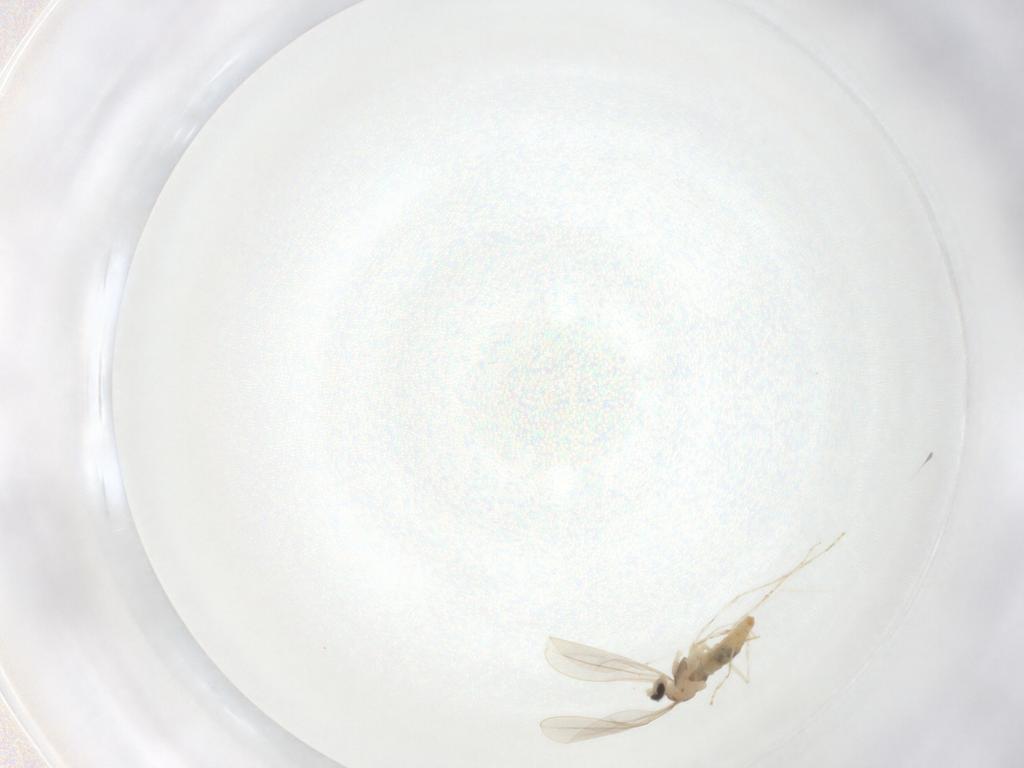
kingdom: Animalia
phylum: Arthropoda
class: Insecta
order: Diptera
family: Cecidomyiidae
